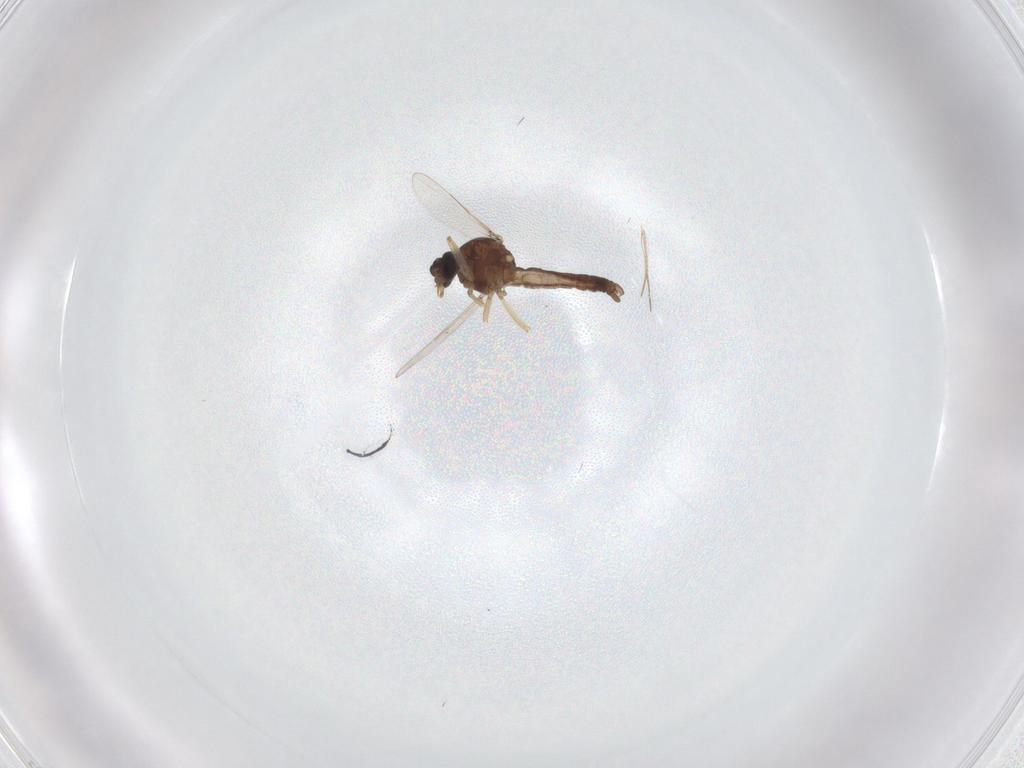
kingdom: Animalia
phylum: Arthropoda
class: Insecta
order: Diptera
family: Ceratopogonidae
